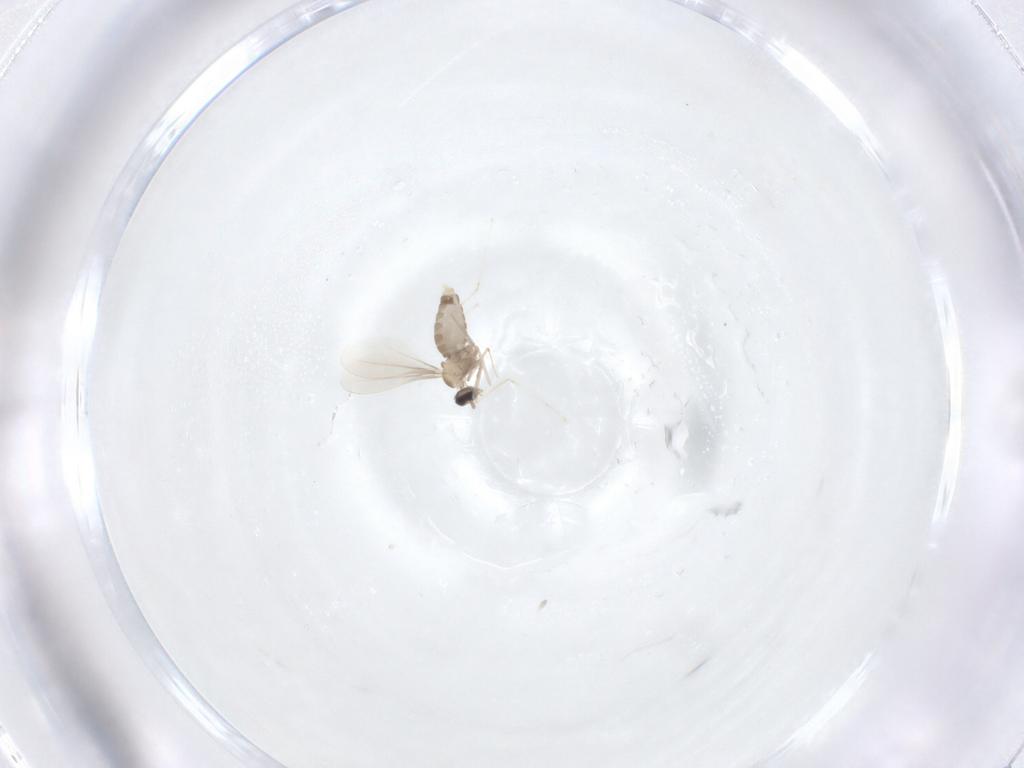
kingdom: Animalia
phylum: Arthropoda
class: Insecta
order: Diptera
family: Cecidomyiidae
